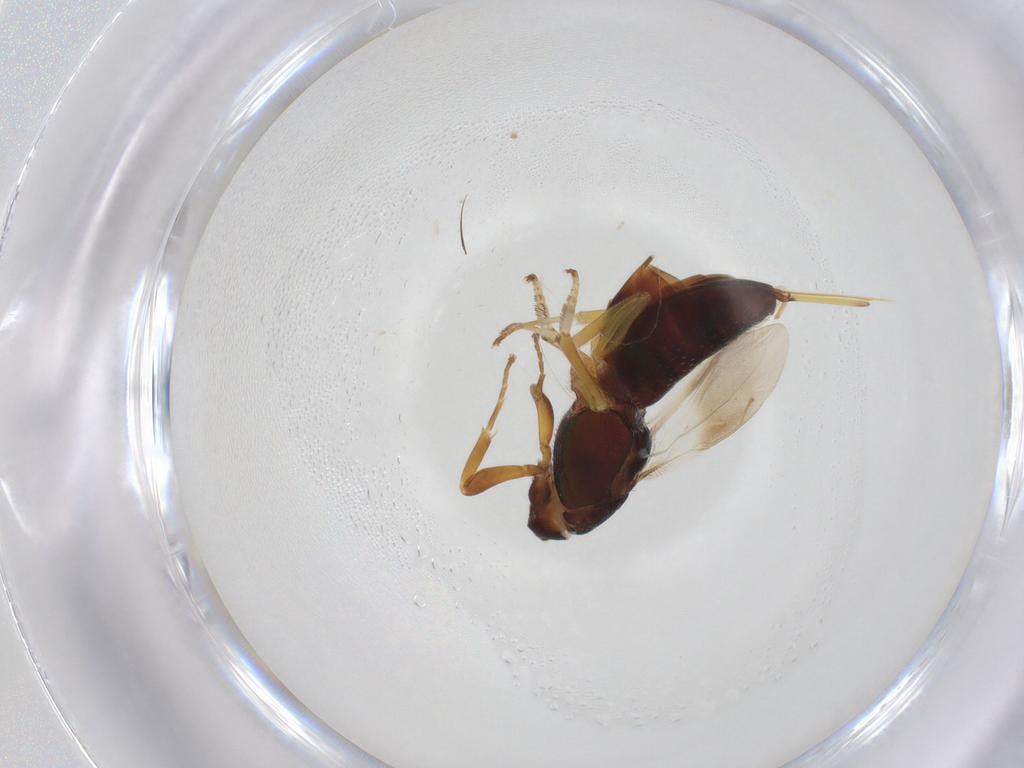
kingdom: Animalia
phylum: Arthropoda
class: Insecta
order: Hymenoptera
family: Eupelmidae
